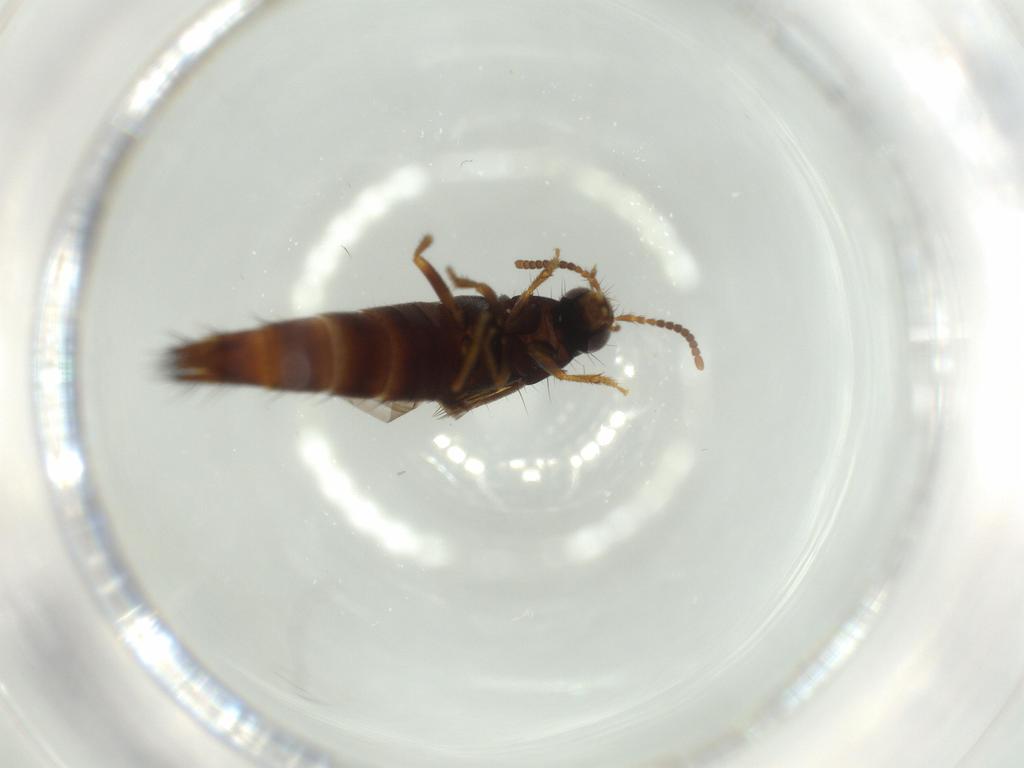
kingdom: Animalia
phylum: Arthropoda
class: Insecta
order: Coleoptera
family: Staphylinidae
